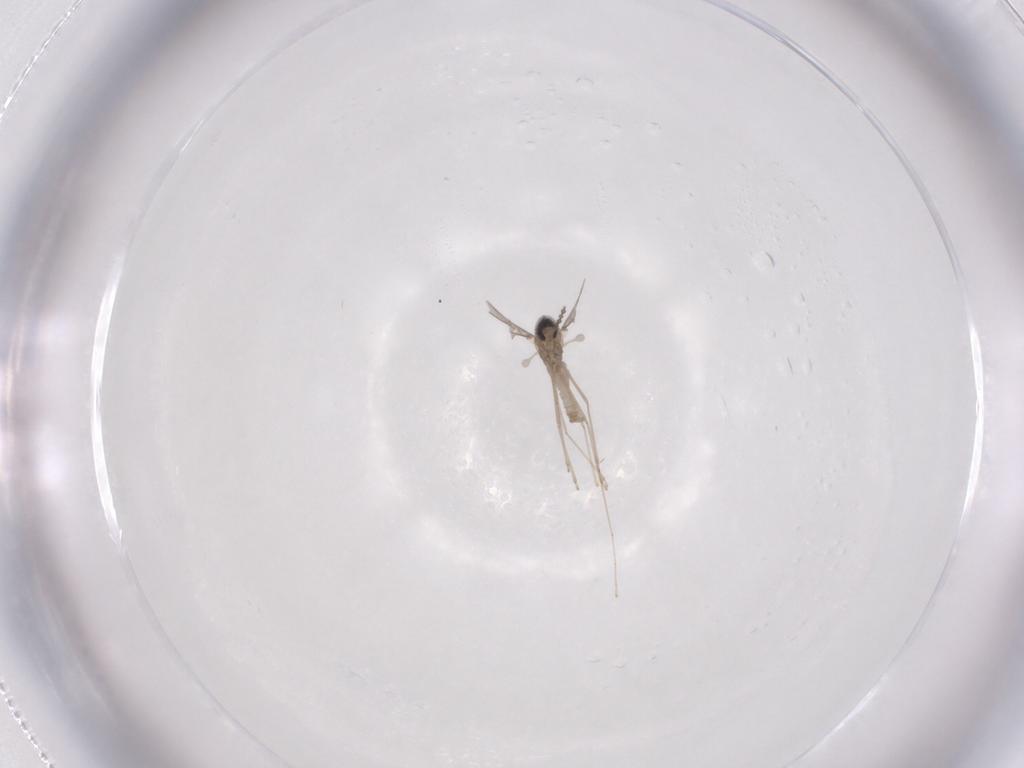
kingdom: Animalia
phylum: Arthropoda
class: Insecta
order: Diptera
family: Cecidomyiidae
